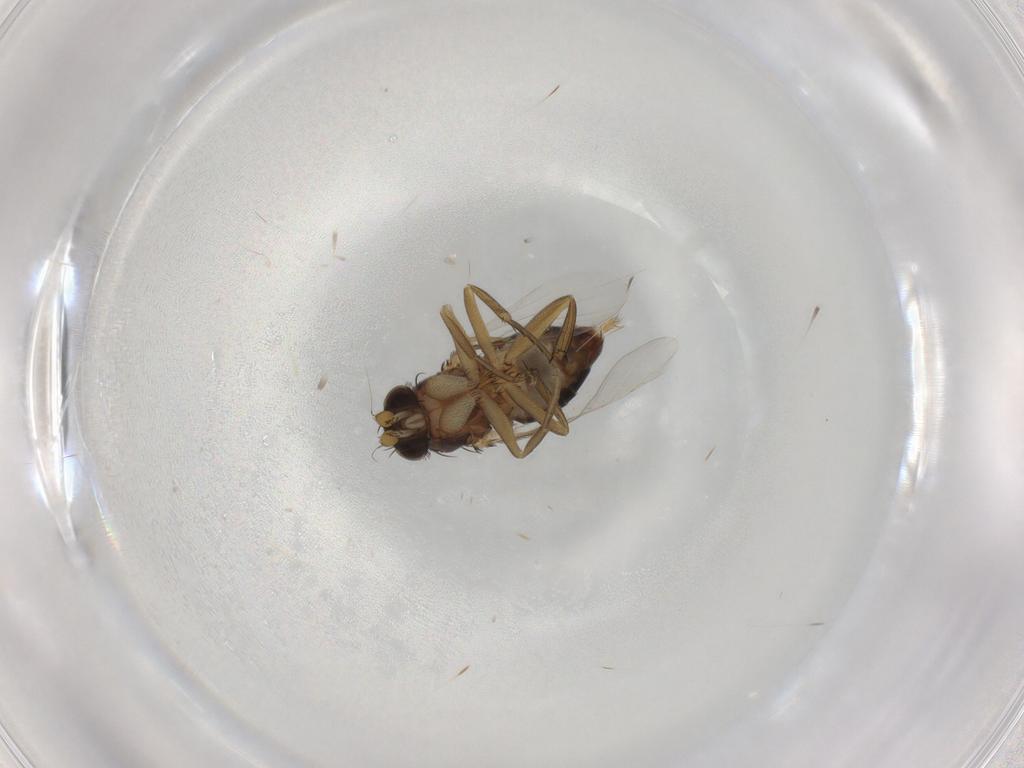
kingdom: Animalia
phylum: Arthropoda
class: Insecta
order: Diptera
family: Phoridae
